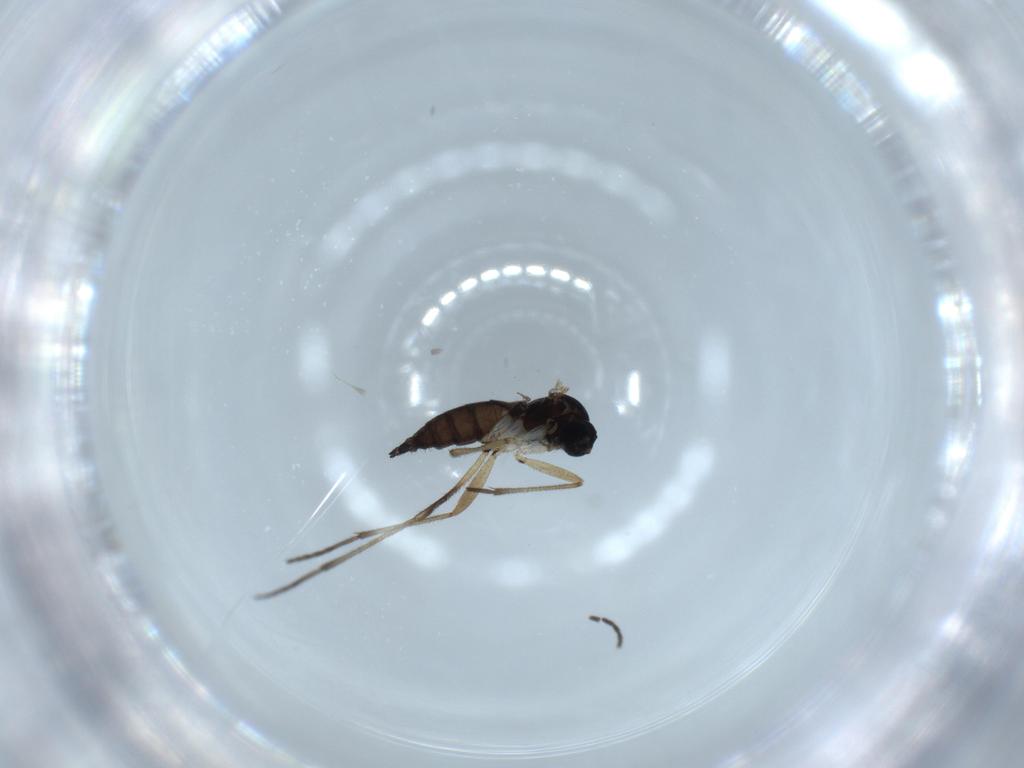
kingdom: Animalia
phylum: Arthropoda
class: Insecta
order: Diptera
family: Sciaridae
